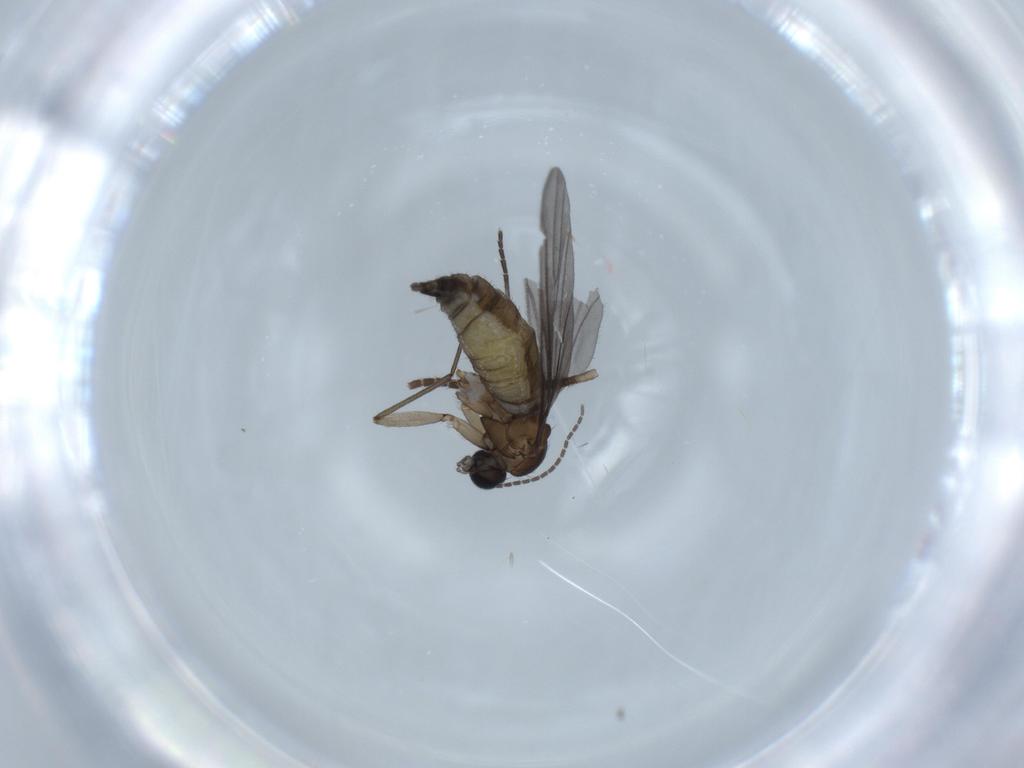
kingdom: Animalia
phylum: Arthropoda
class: Insecta
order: Diptera
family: Sciaridae
